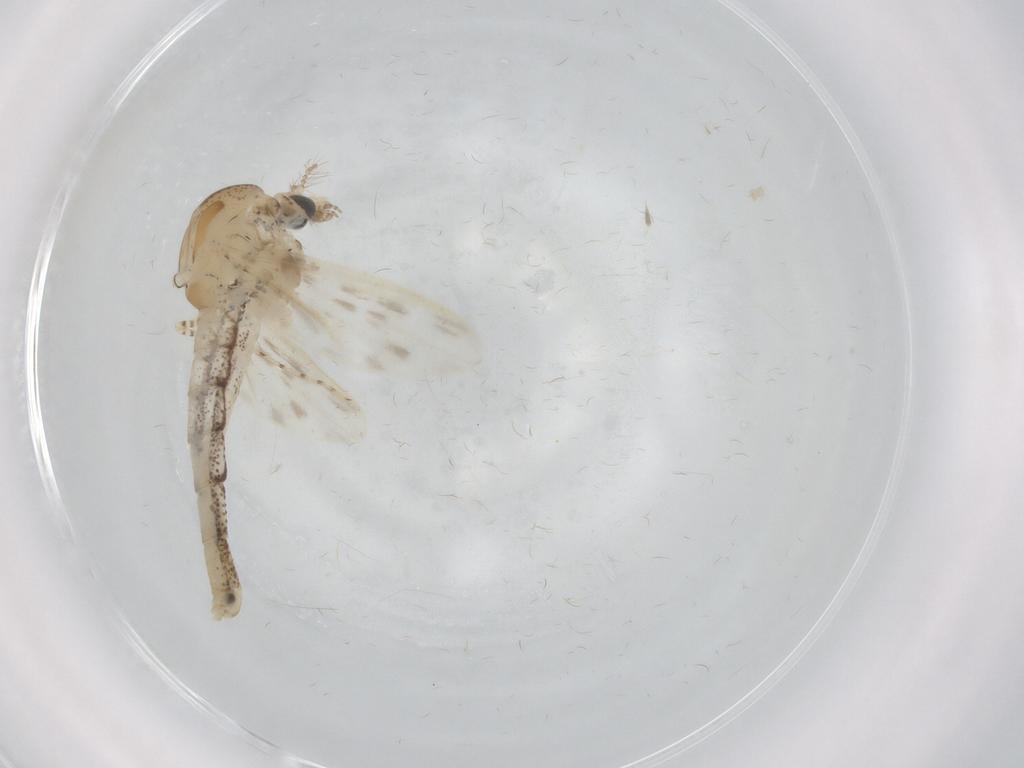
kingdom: Animalia
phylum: Arthropoda
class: Insecta
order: Diptera
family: Chaoboridae
